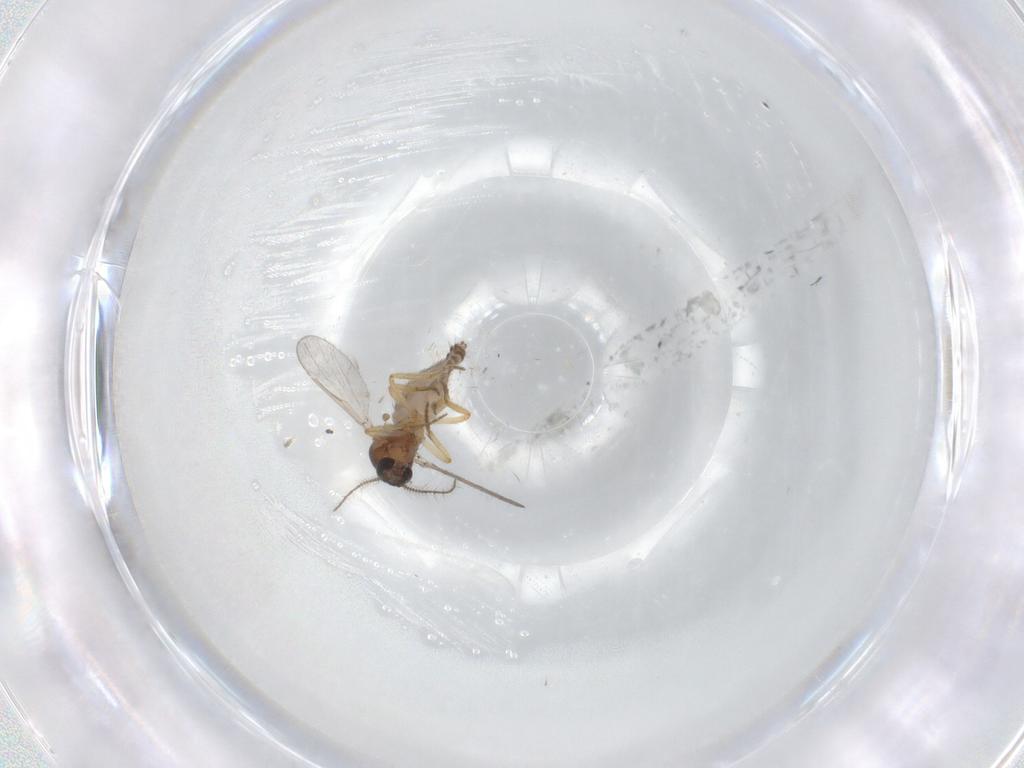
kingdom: Animalia
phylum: Arthropoda
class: Insecta
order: Diptera
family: Ceratopogonidae
